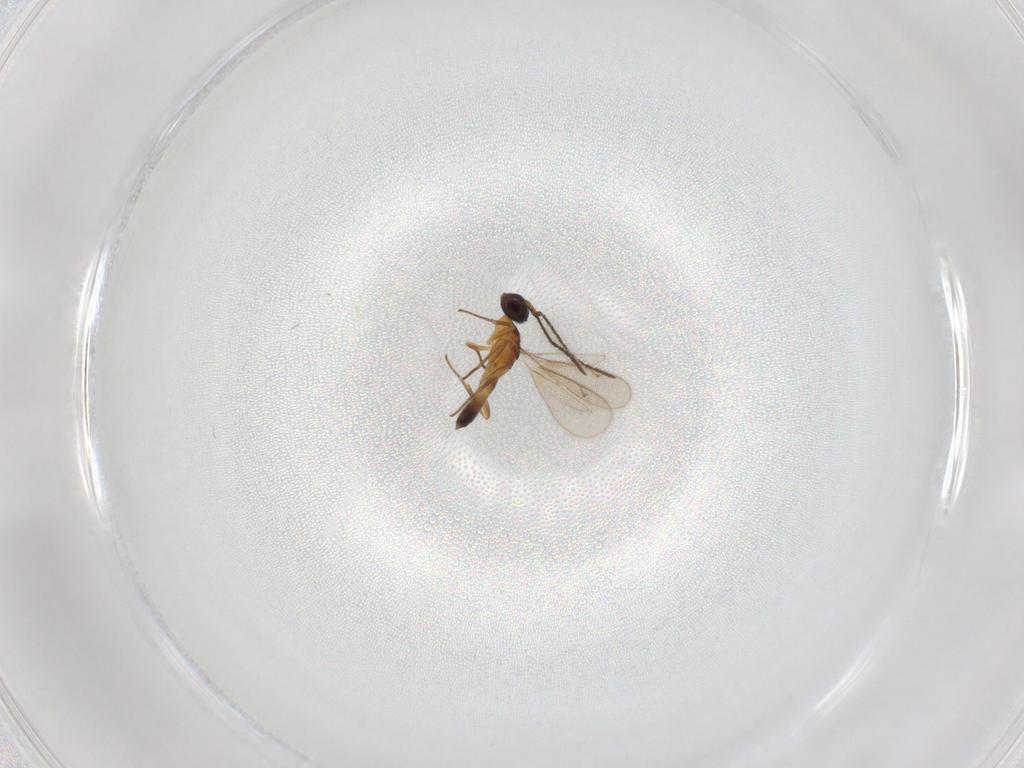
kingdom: Animalia
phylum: Arthropoda
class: Insecta
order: Hymenoptera
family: Eupelmidae
